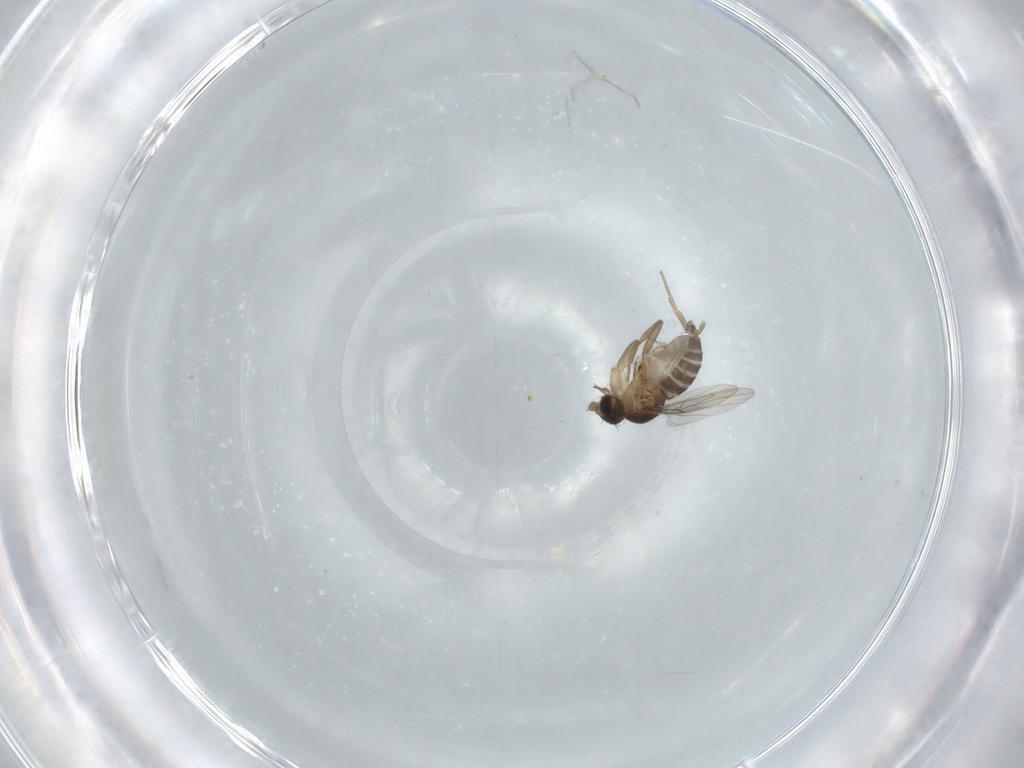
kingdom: Animalia
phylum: Arthropoda
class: Insecta
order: Diptera
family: Phoridae
